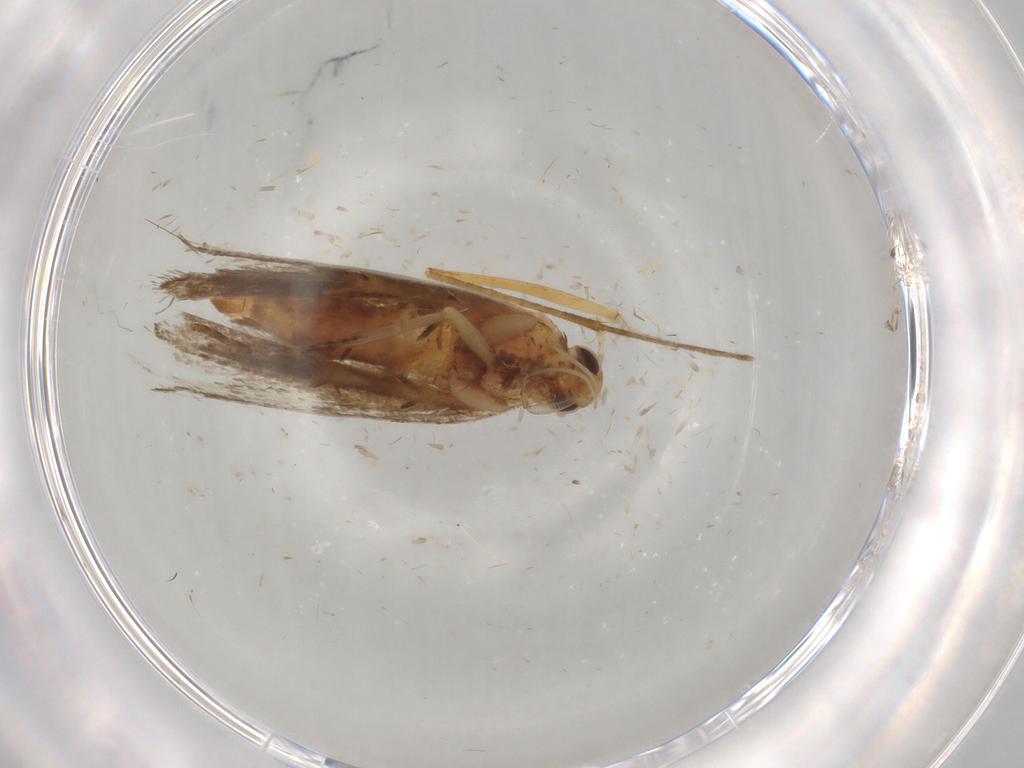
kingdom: Animalia
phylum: Arthropoda
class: Insecta
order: Lepidoptera
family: Gelechiidae
